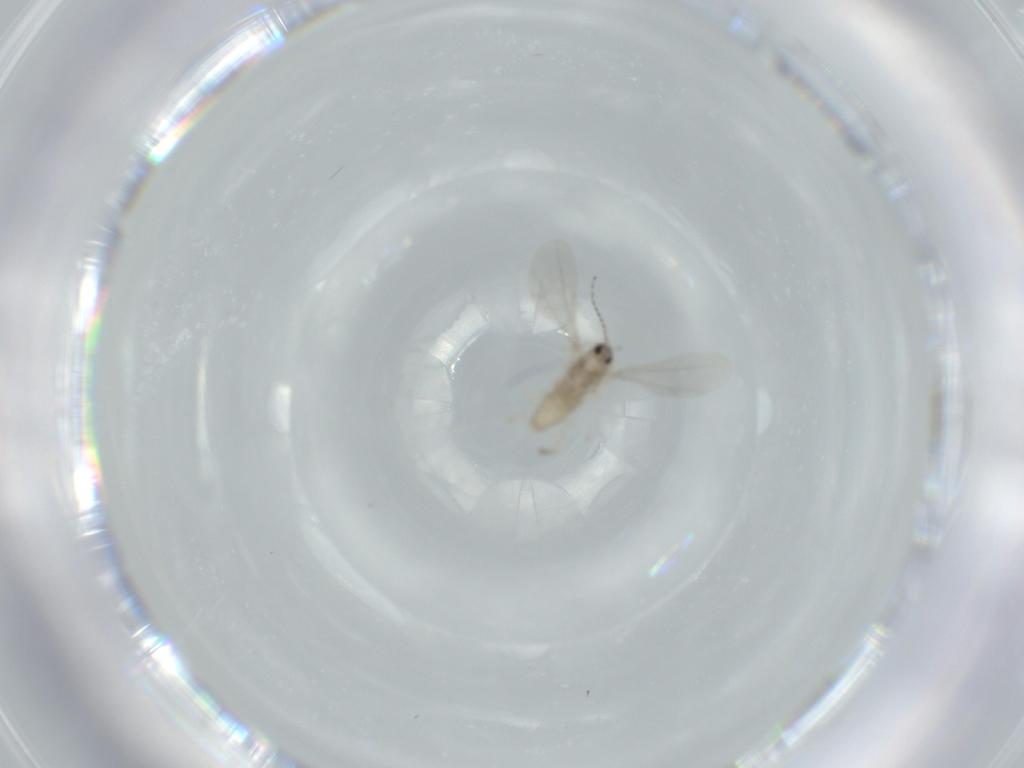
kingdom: Animalia
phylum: Arthropoda
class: Insecta
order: Diptera
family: Cecidomyiidae
